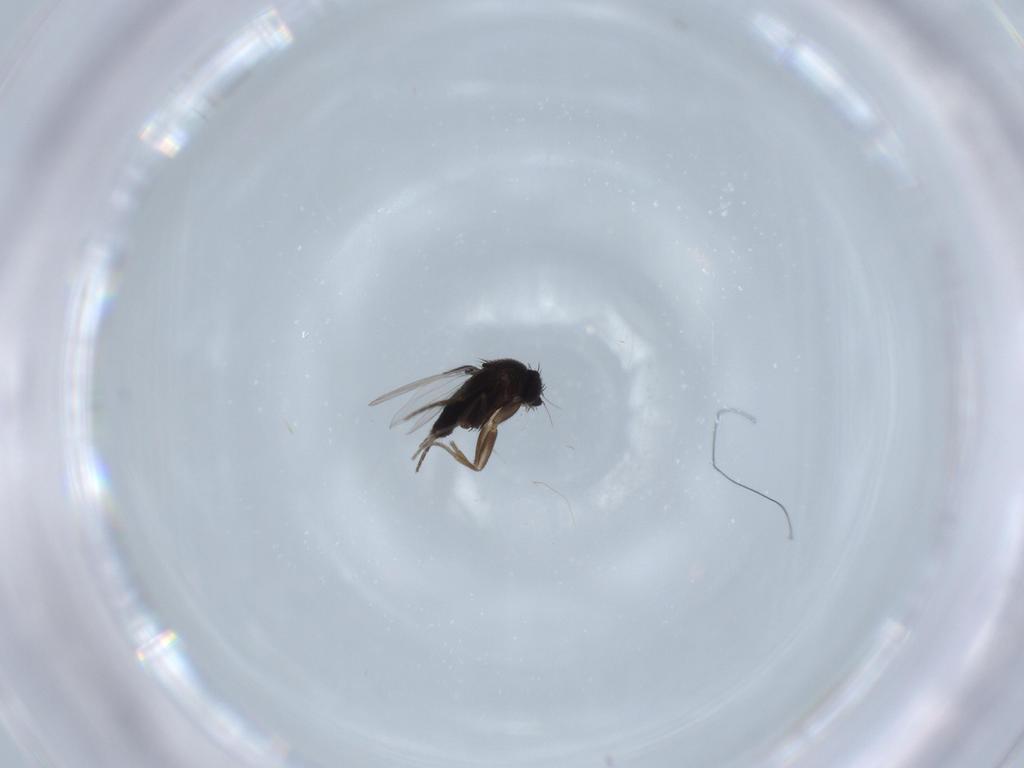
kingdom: Animalia
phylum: Arthropoda
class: Insecta
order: Diptera
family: Phoridae
